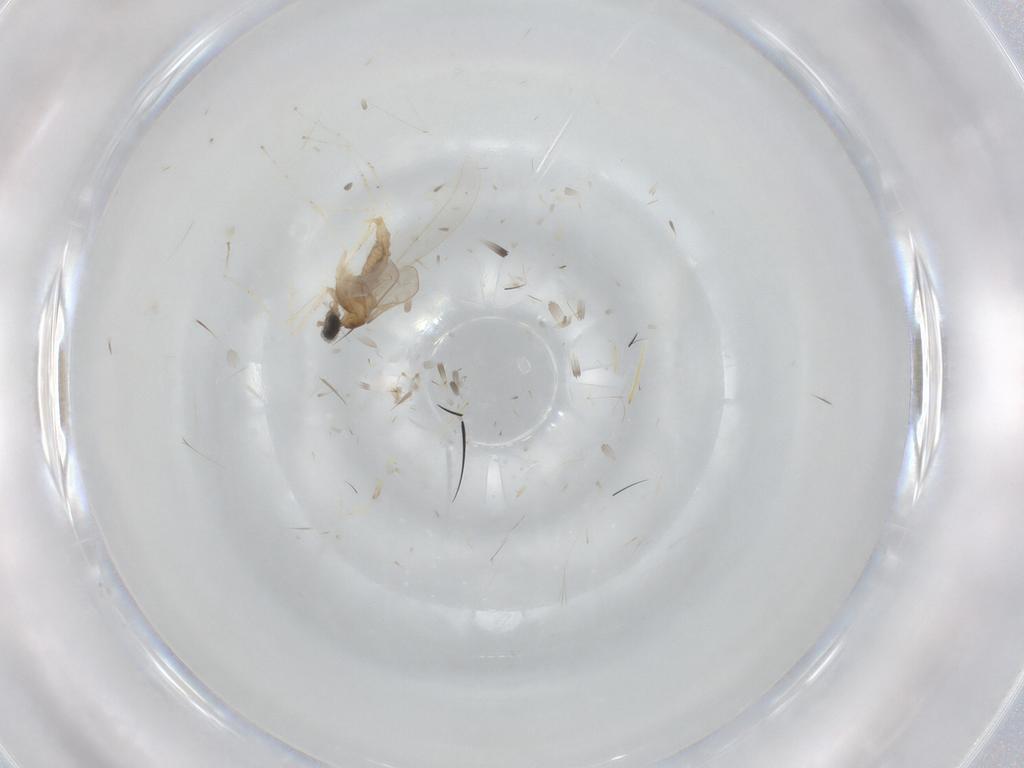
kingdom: Animalia
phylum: Arthropoda
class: Insecta
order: Diptera
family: Cecidomyiidae
